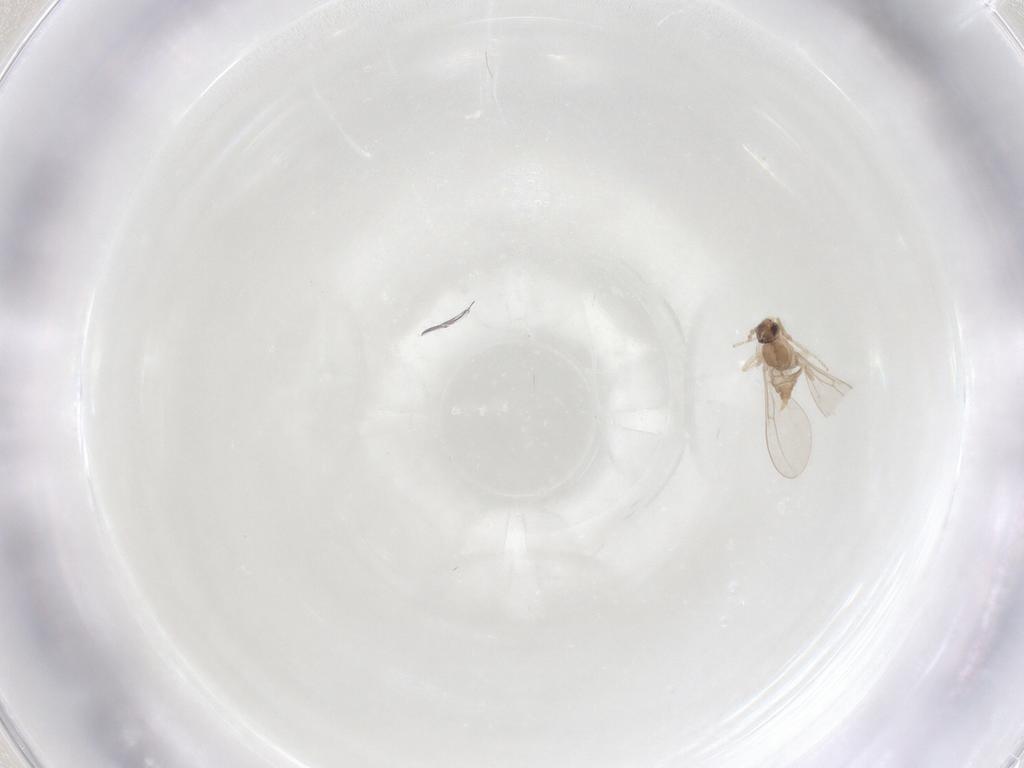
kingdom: Animalia
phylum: Arthropoda
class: Insecta
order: Diptera
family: Cecidomyiidae
